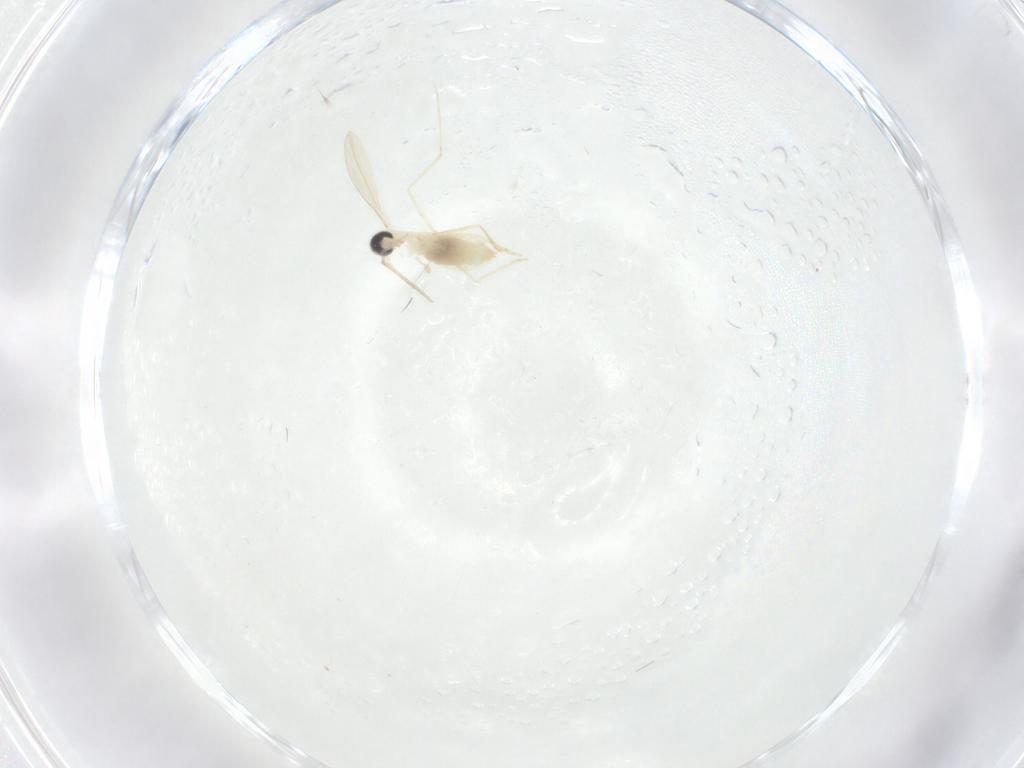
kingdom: Animalia
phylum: Arthropoda
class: Insecta
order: Diptera
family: Cecidomyiidae
